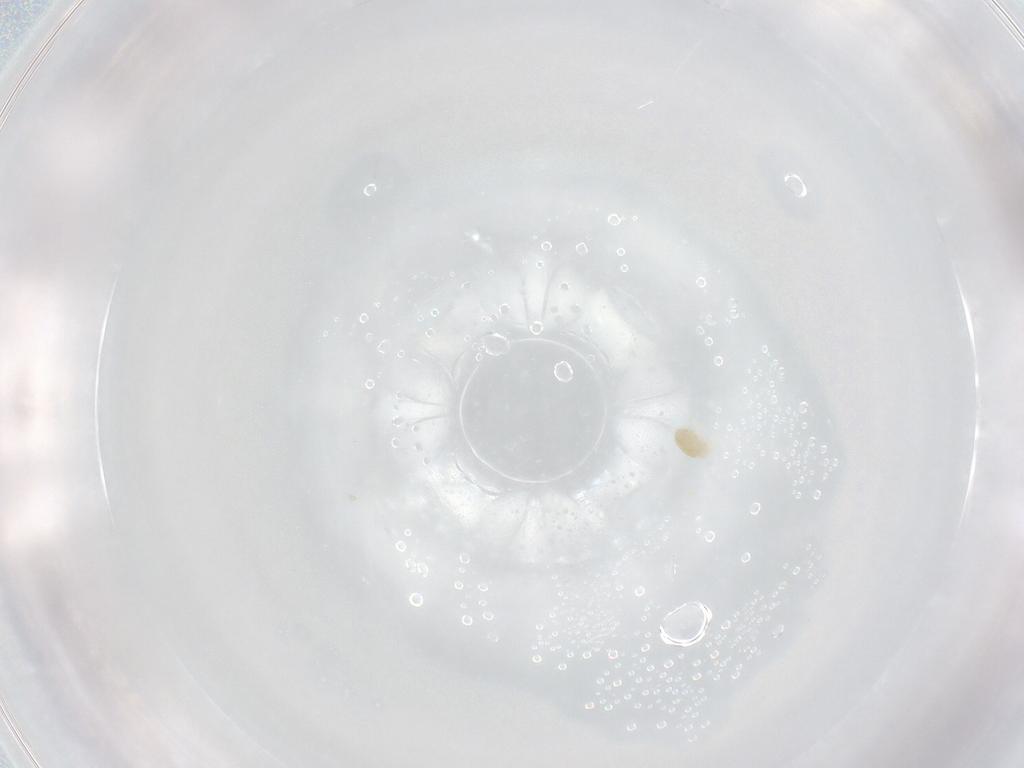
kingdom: Animalia
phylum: Arthropoda
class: Arachnida
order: Trombidiformes
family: Eupodidae
